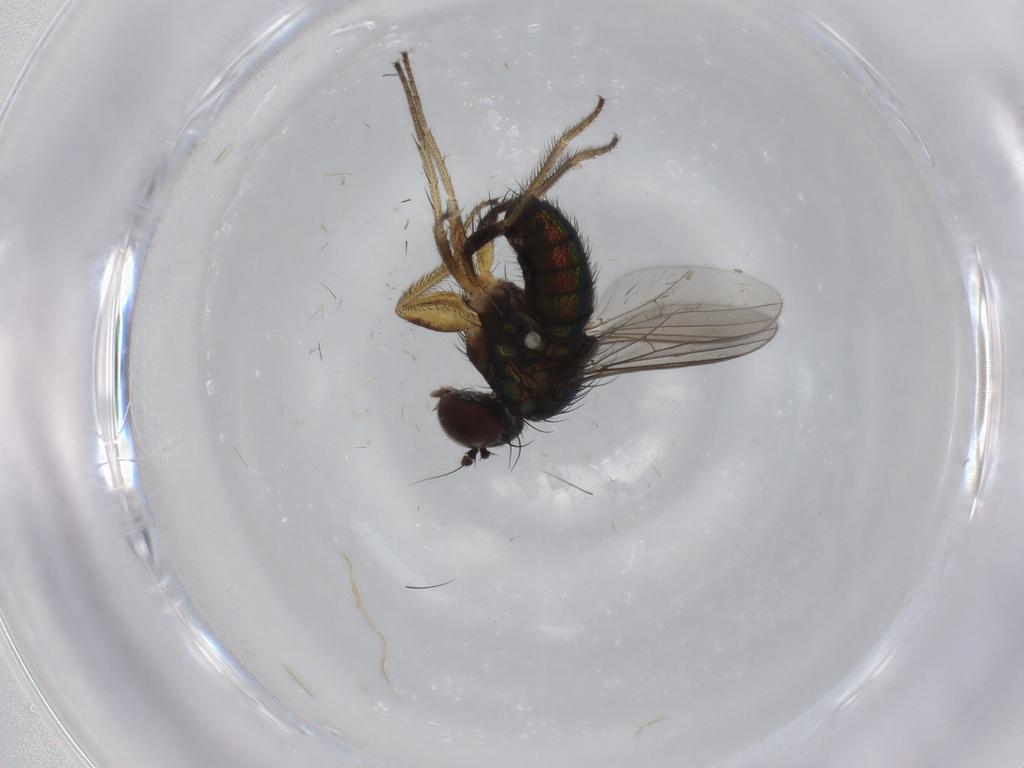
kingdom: Animalia
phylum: Arthropoda
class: Insecta
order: Diptera
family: Dolichopodidae
